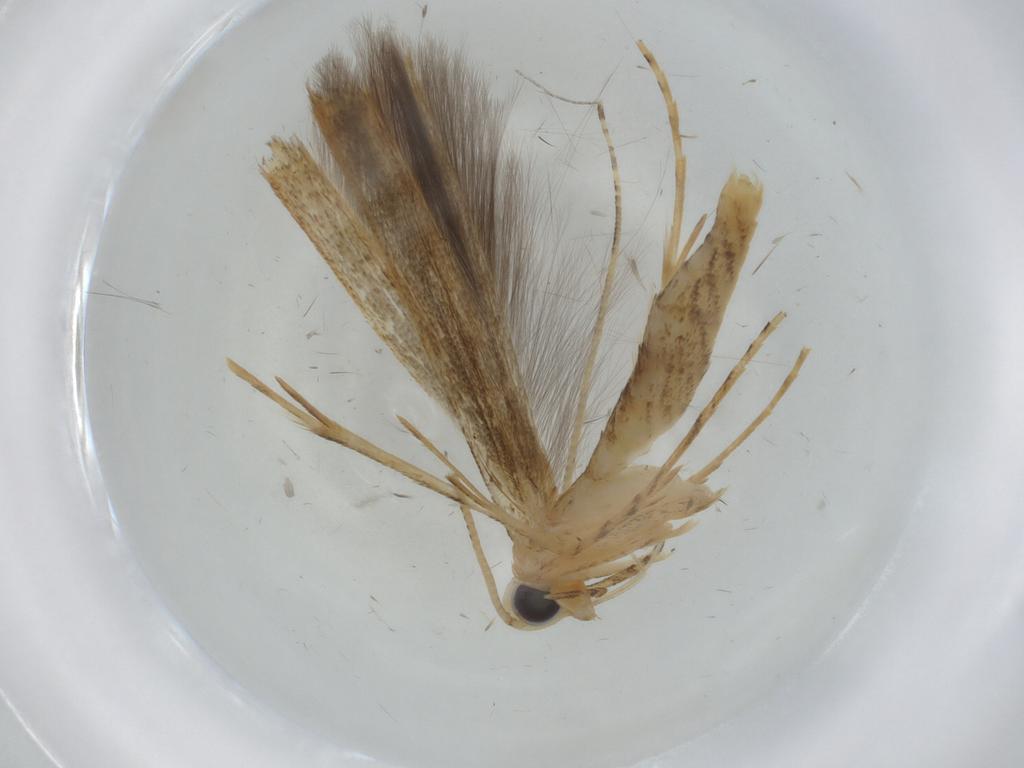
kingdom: Animalia
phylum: Arthropoda
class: Insecta
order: Lepidoptera
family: Batrachedridae
